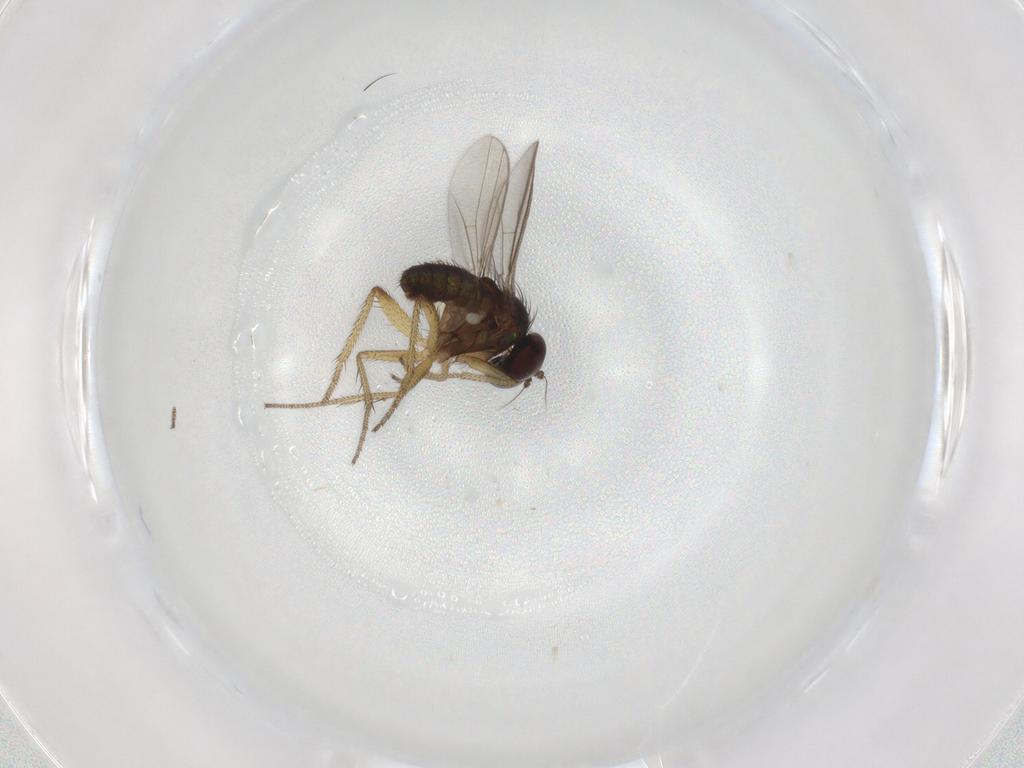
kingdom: Animalia
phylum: Arthropoda
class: Insecta
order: Diptera
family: Ceratopogonidae
